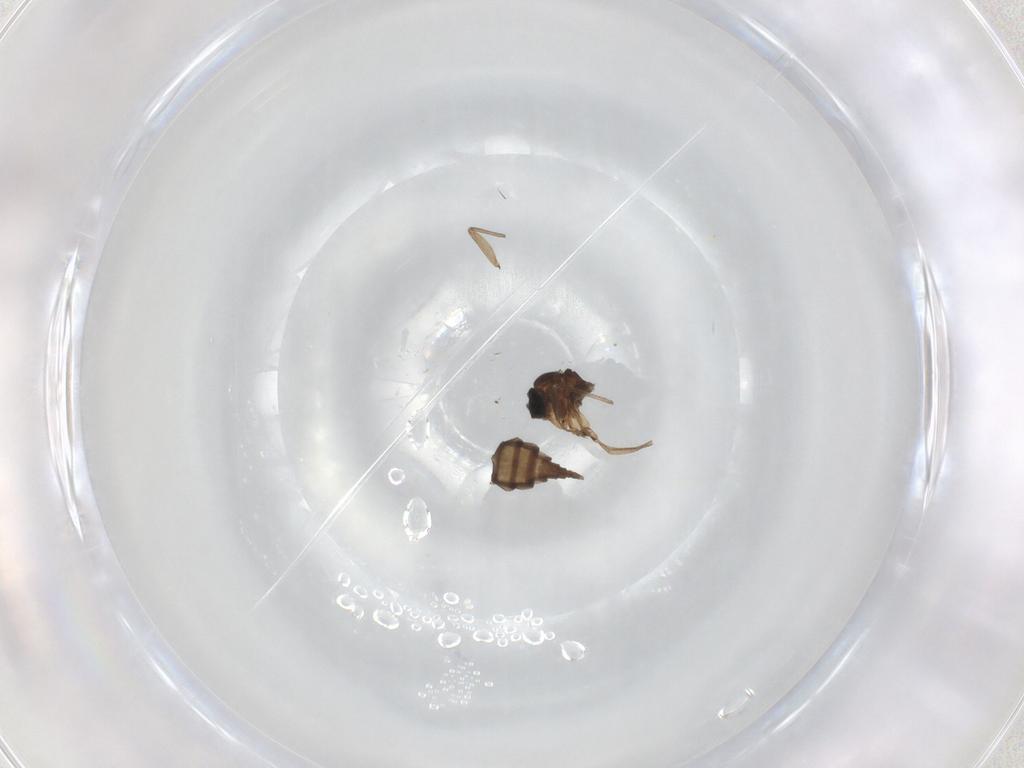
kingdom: Animalia
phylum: Arthropoda
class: Insecta
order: Diptera
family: Sciaridae
